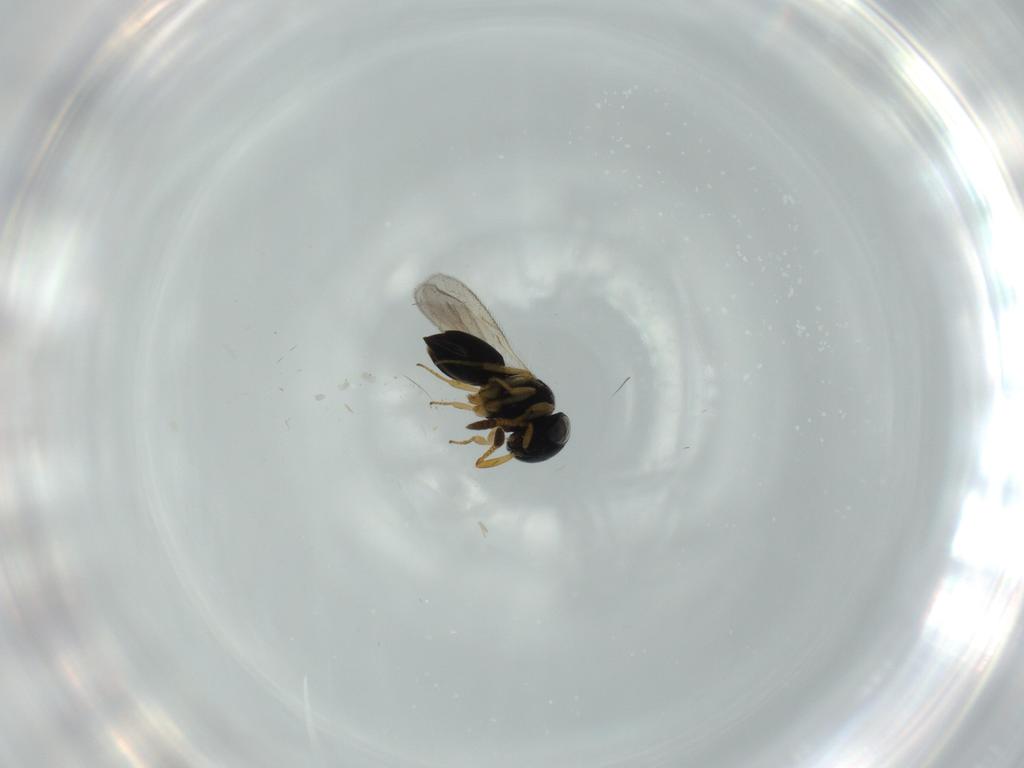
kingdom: Animalia
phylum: Arthropoda
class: Insecta
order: Hymenoptera
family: Scelionidae
